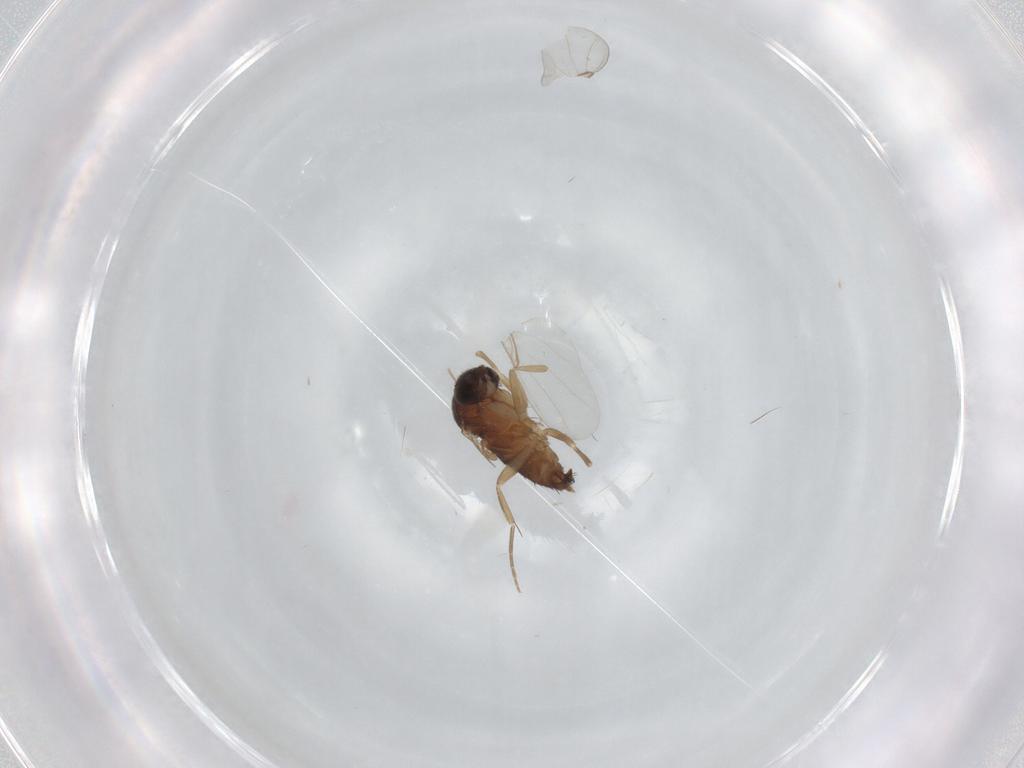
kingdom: Animalia
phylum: Arthropoda
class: Insecta
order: Diptera
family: Phoridae
